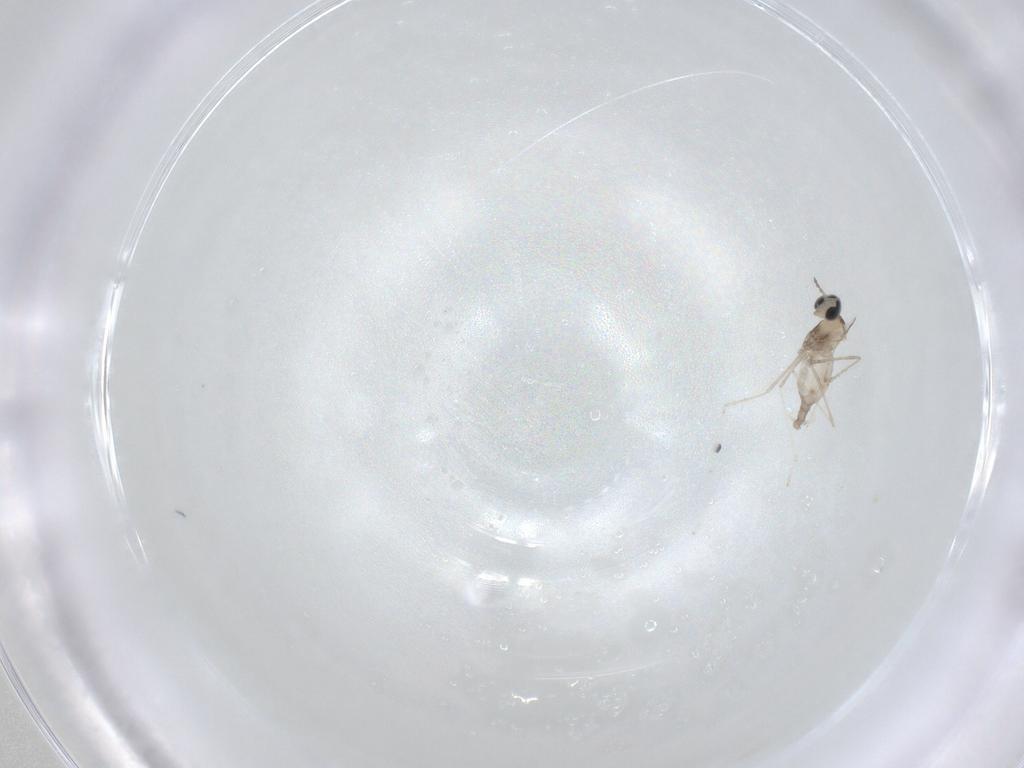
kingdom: Animalia
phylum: Arthropoda
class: Insecta
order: Diptera
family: Cecidomyiidae
